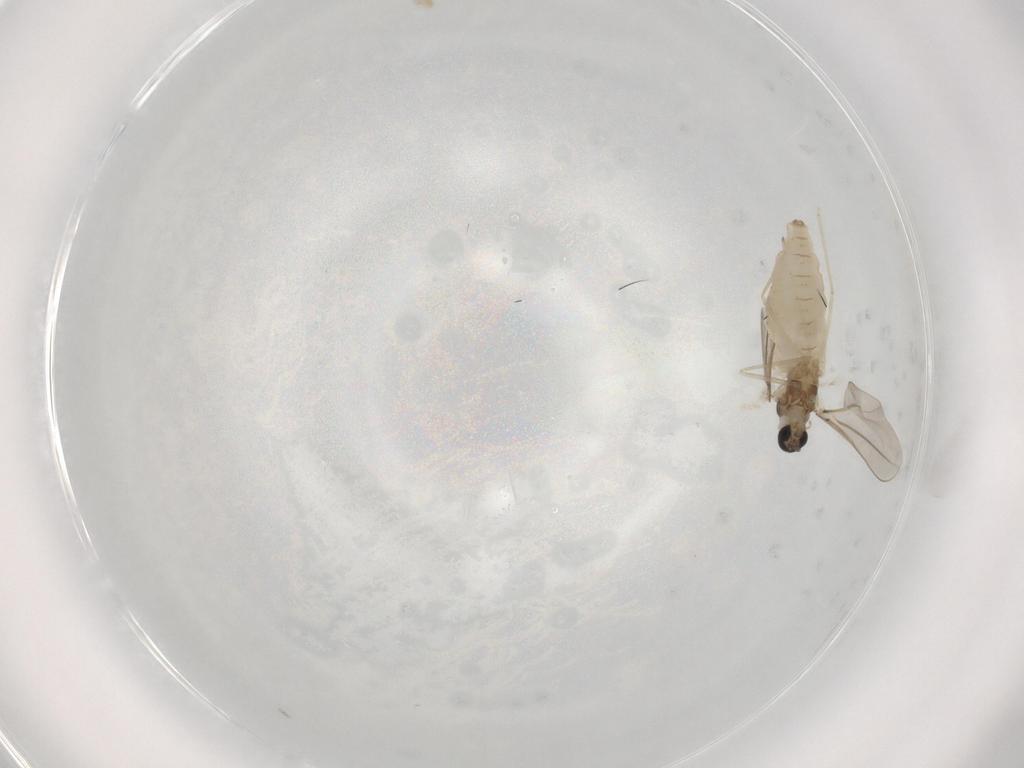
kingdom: Animalia
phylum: Arthropoda
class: Insecta
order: Diptera
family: Cecidomyiidae
